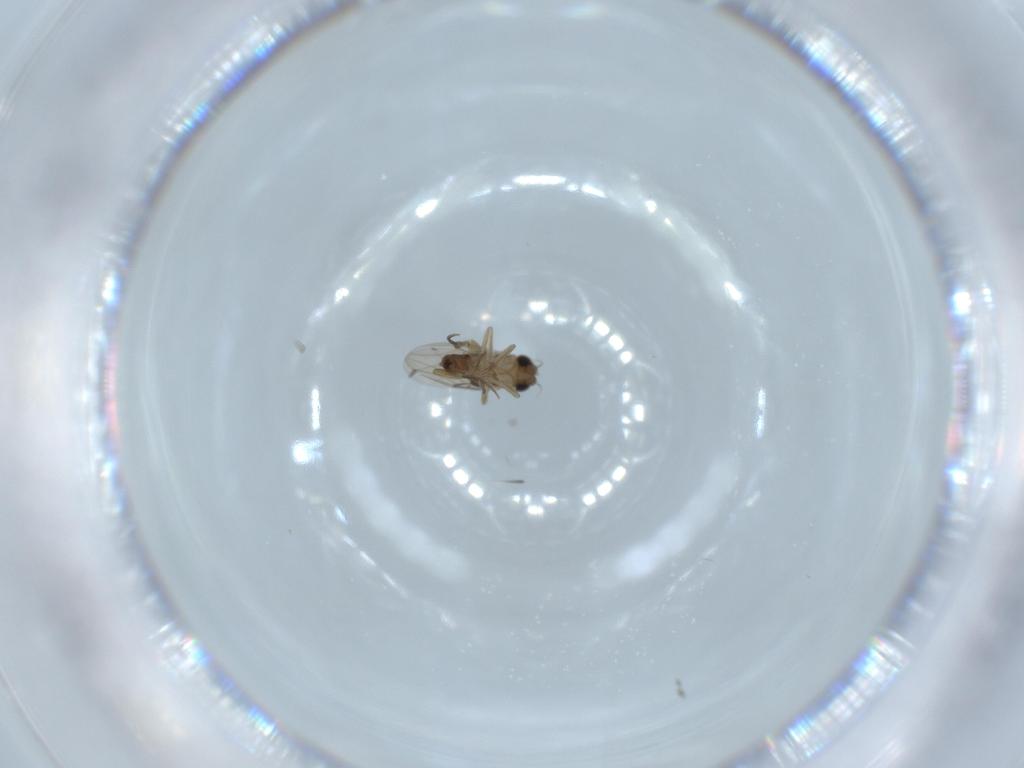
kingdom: Animalia
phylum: Arthropoda
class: Insecta
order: Diptera
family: Phoridae
